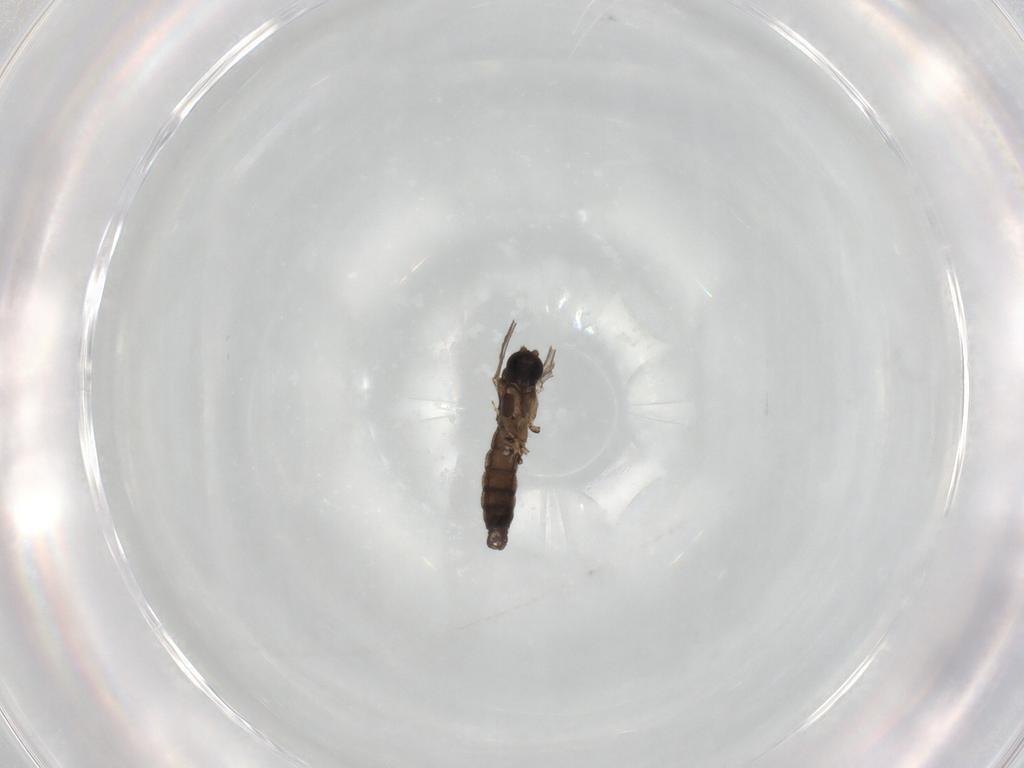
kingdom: Animalia
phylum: Arthropoda
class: Insecta
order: Diptera
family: Sciaridae
